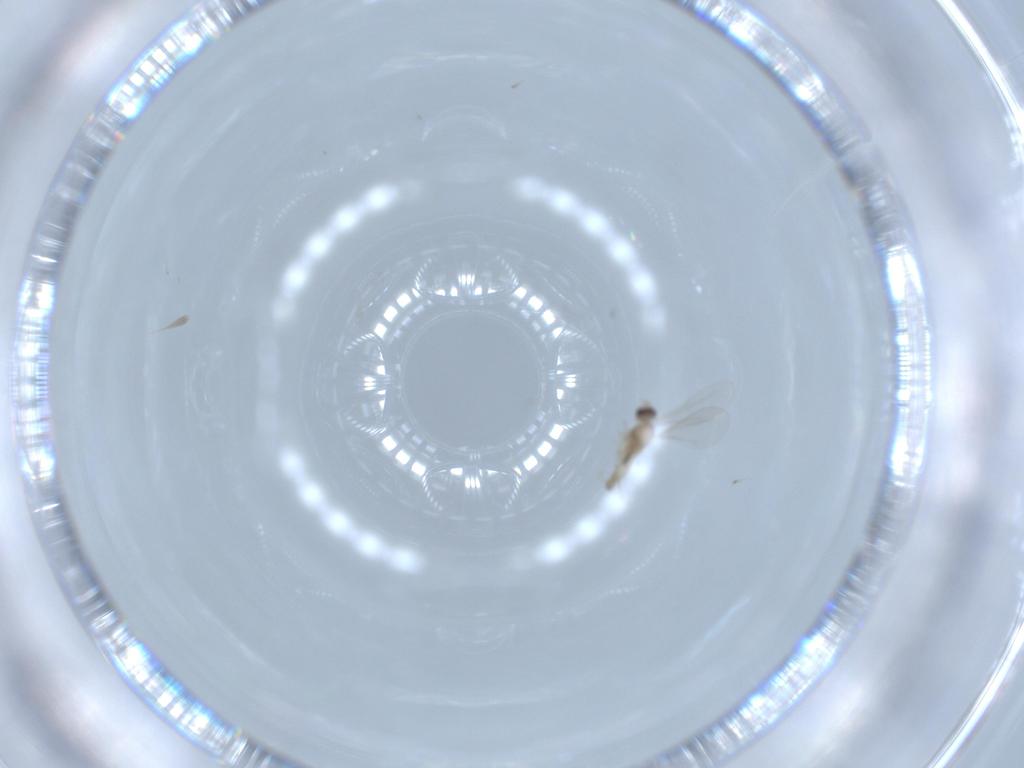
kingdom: Animalia
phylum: Arthropoda
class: Insecta
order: Diptera
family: Cecidomyiidae
